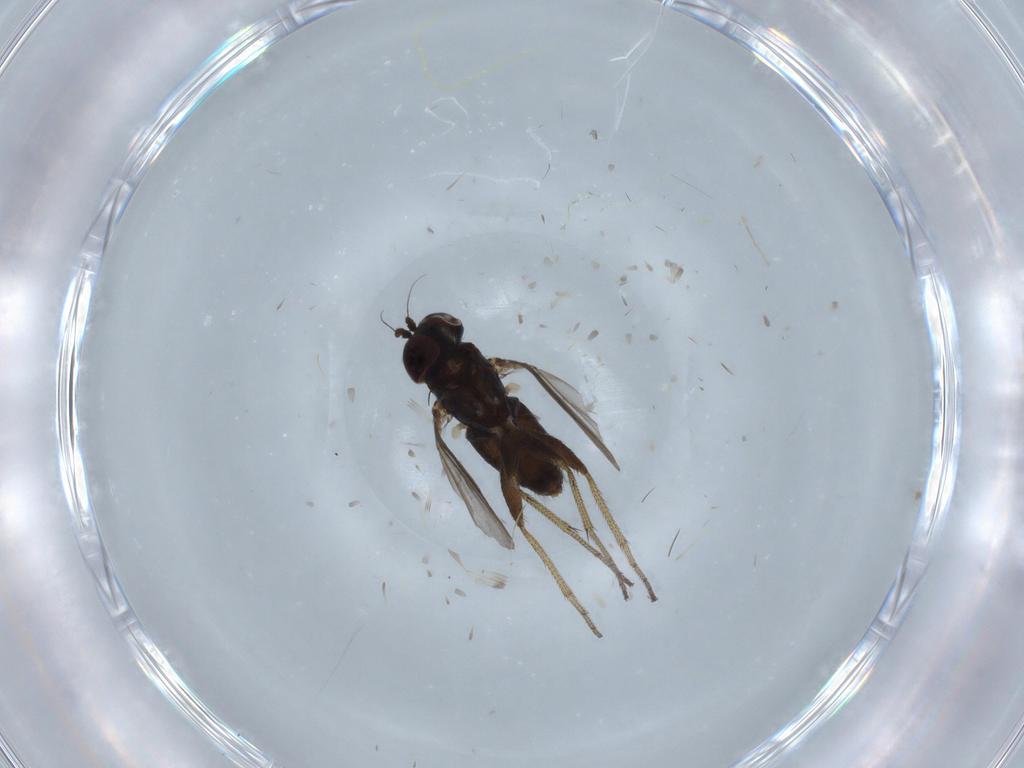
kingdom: Animalia
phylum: Arthropoda
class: Insecta
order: Diptera
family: Dolichopodidae
